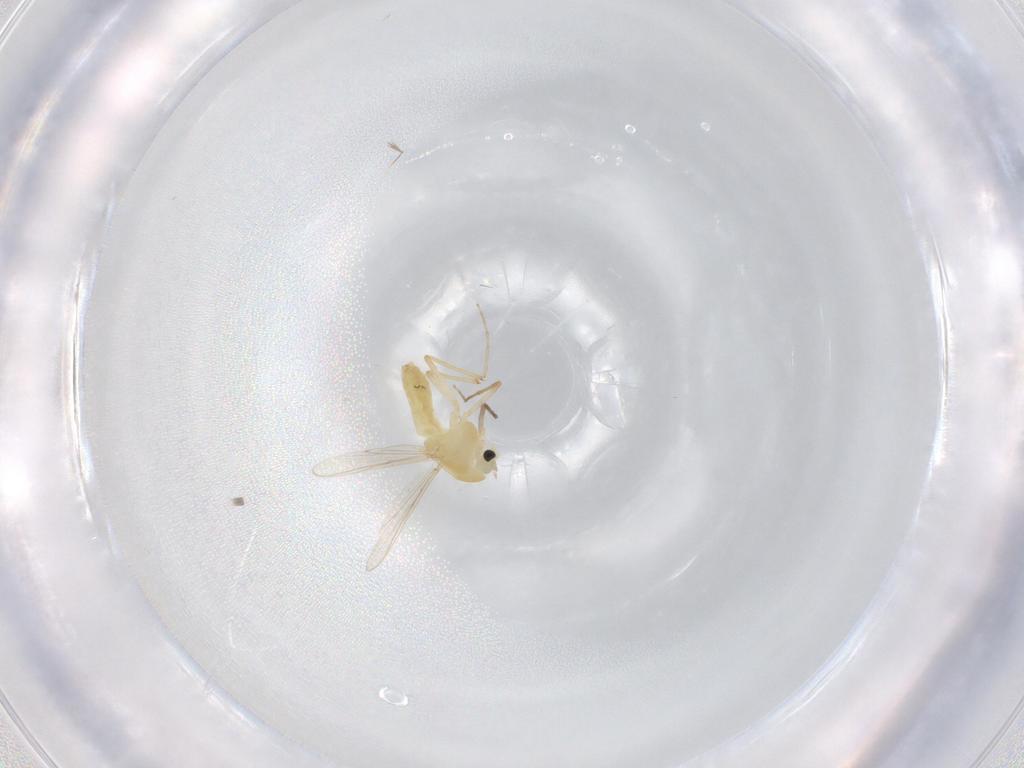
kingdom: Animalia
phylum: Arthropoda
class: Insecta
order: Diptera
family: Chironomidae
